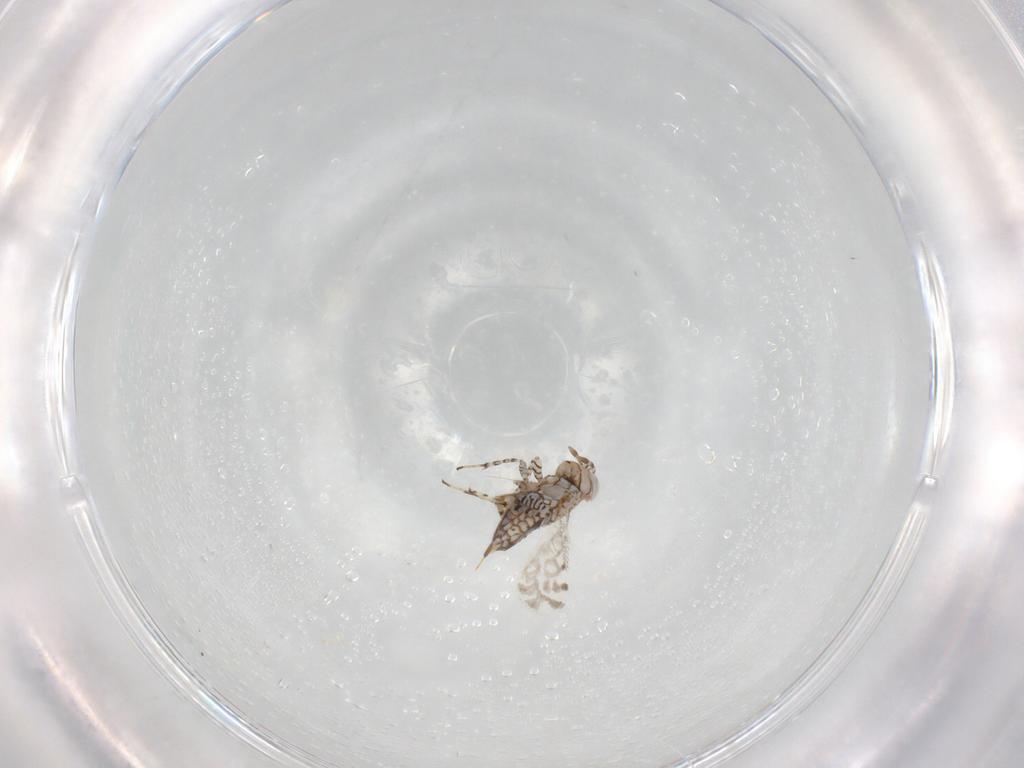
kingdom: Animalia
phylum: Arthropoda
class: Insecta
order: Hymenoptera
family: Aphelinidae
